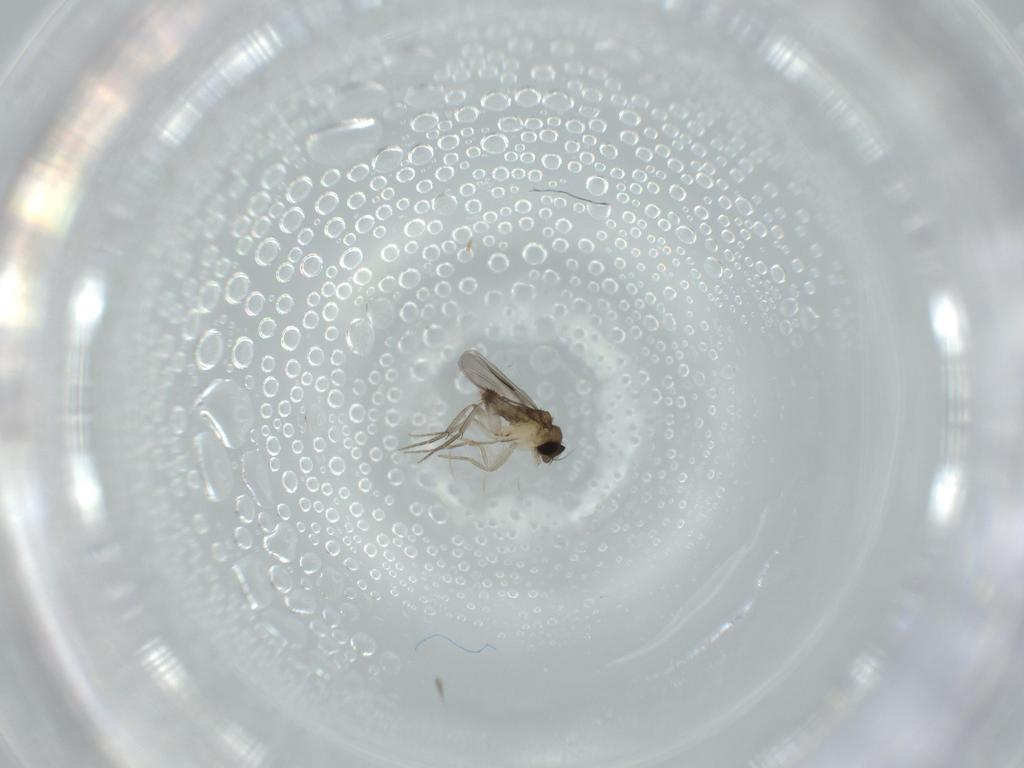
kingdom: Animalia
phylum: Arthropoda
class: Insecta
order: Diptera
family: Phoridae
